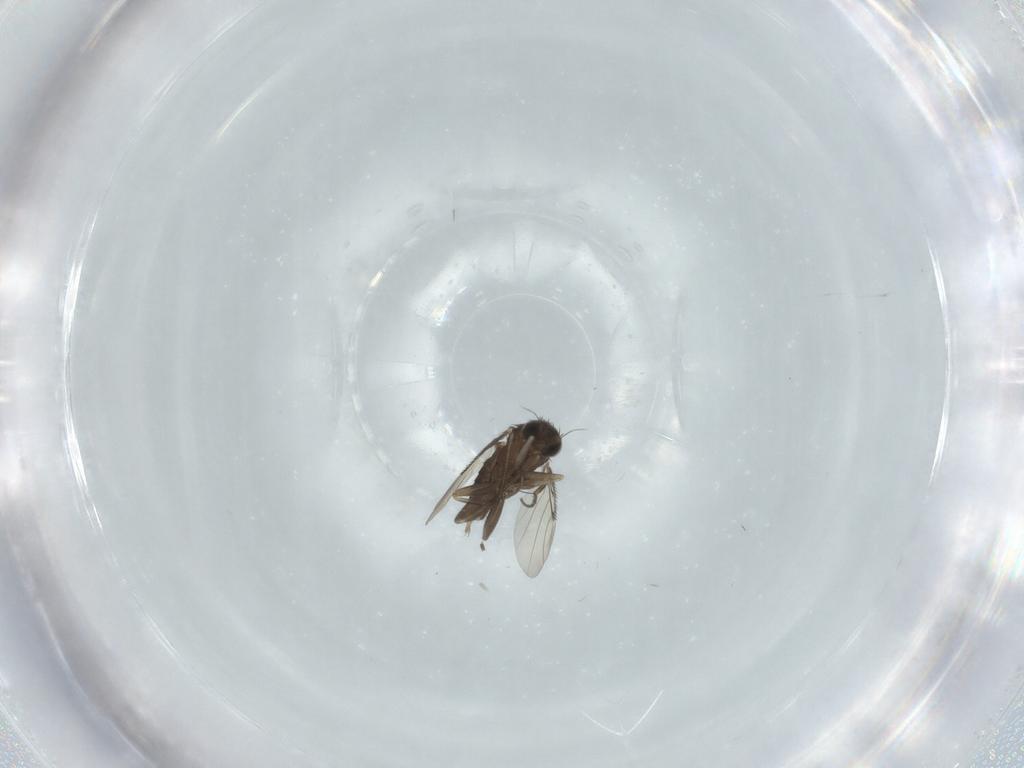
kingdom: Animalia
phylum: Arthropoda
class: Insecta
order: Diptera
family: Phoridae
